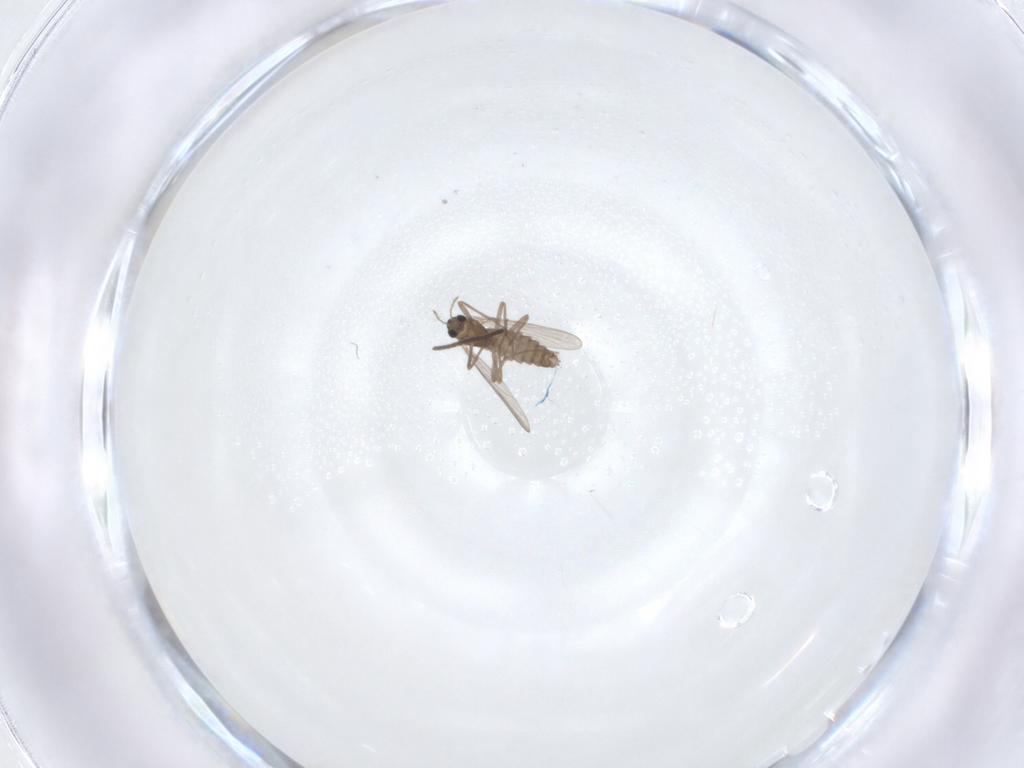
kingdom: Animalia
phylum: Arthropoda
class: Insecta
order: Diptera
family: Chironomidae
